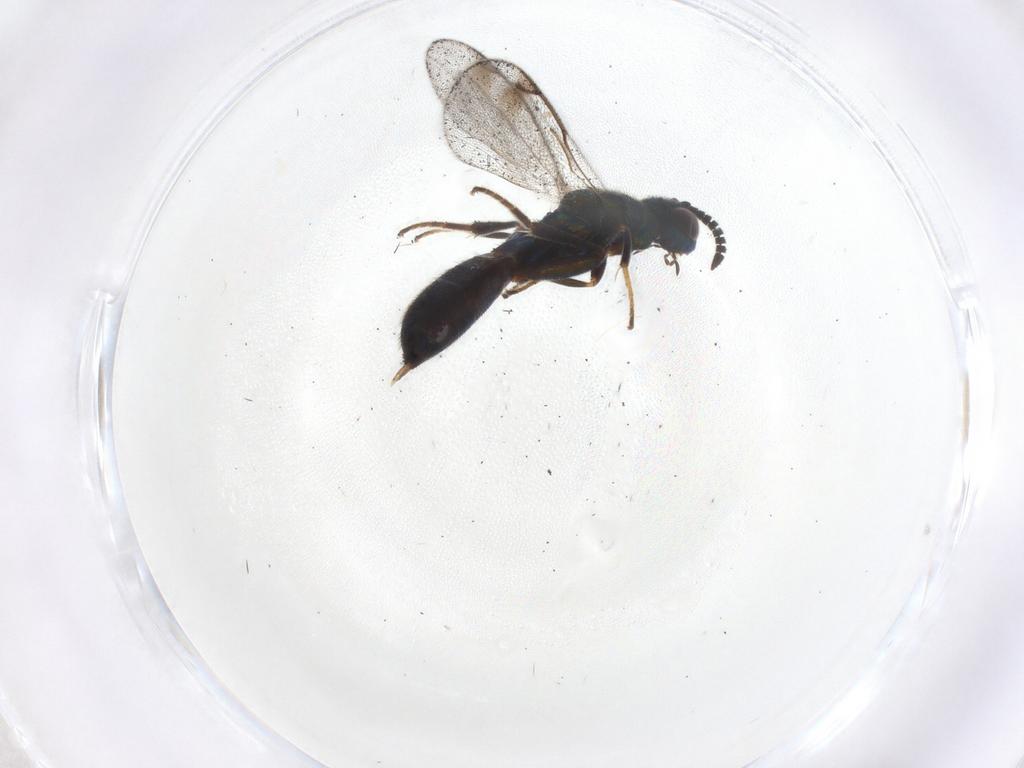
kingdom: Animalia
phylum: Arthropoda
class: Insecta
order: Hymenoptera
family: Cleonyminae
